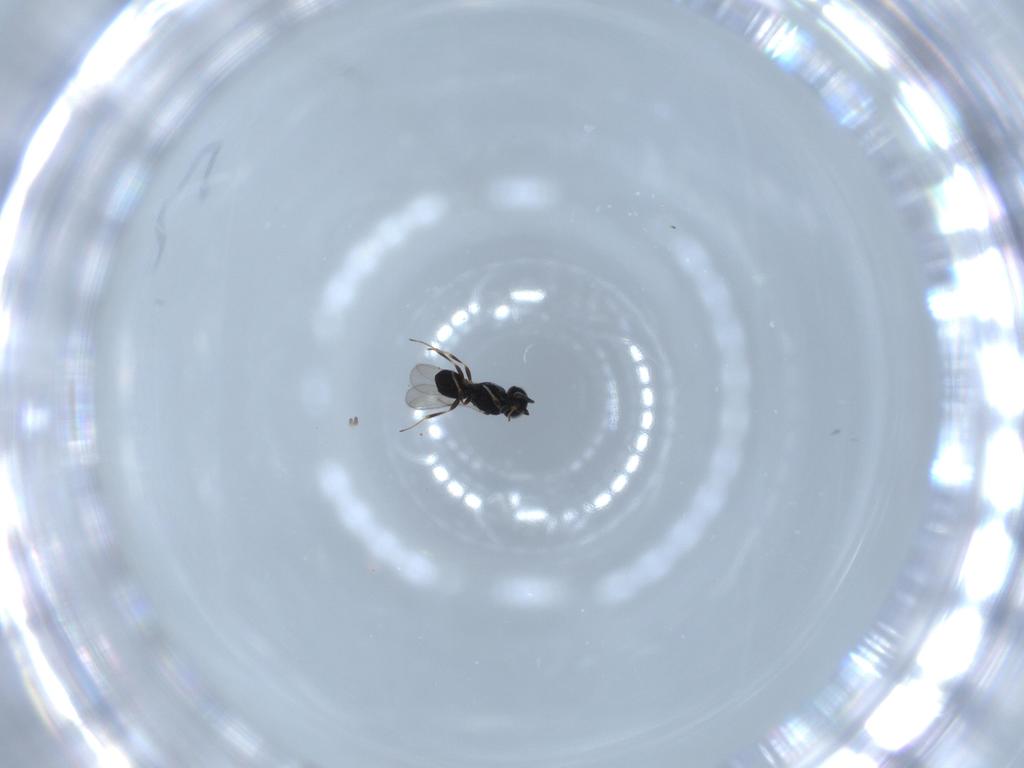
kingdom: Animalia
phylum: Arthropoda
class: Insecta
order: Hymenoptera
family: Scelionidae
